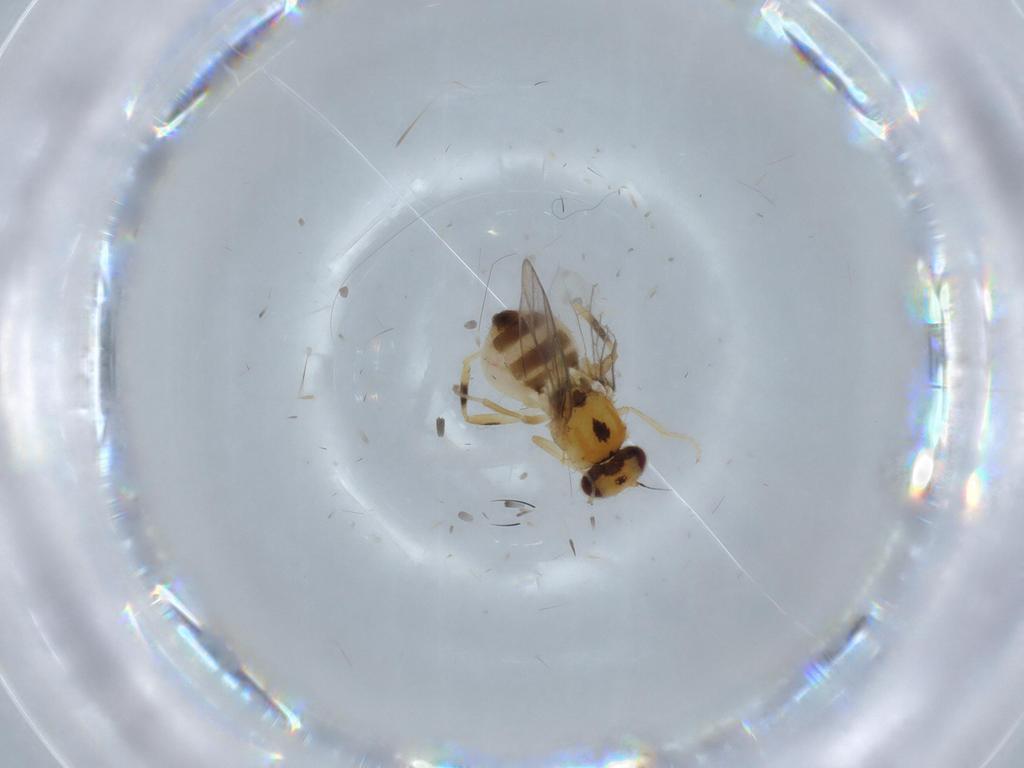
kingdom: Animalia
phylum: Arthropoda
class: Insecta
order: Diptera
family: Chloropidae
